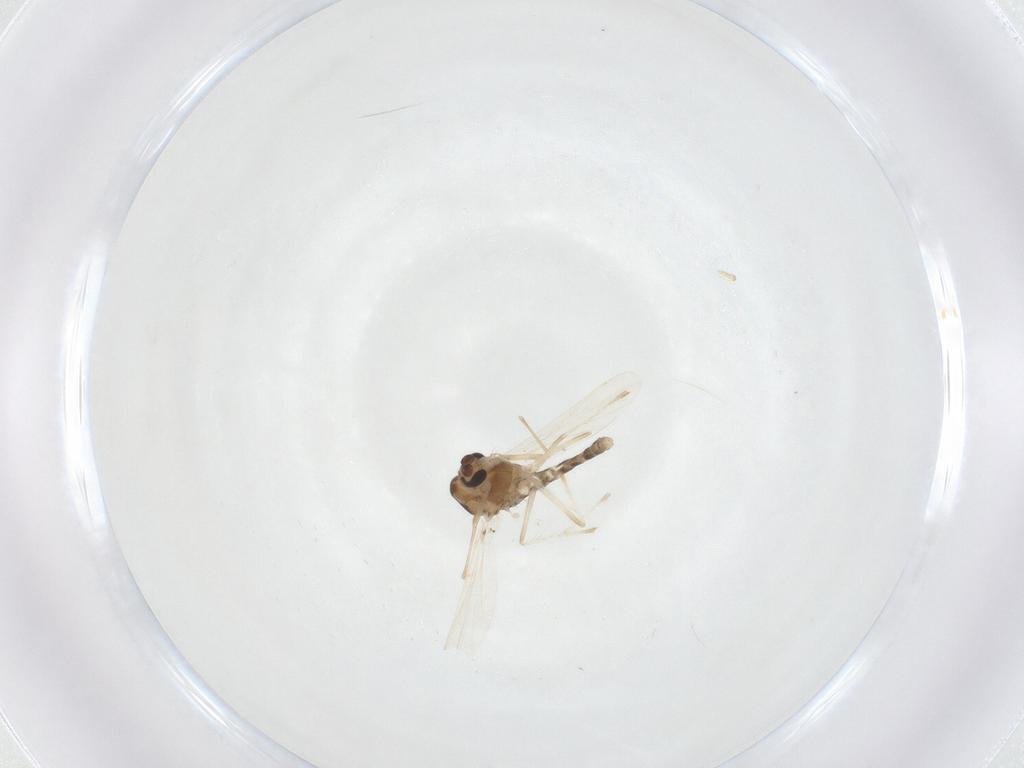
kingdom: Animalia
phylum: Arthropoda
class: Insecta
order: Diptera
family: Chironomidae
